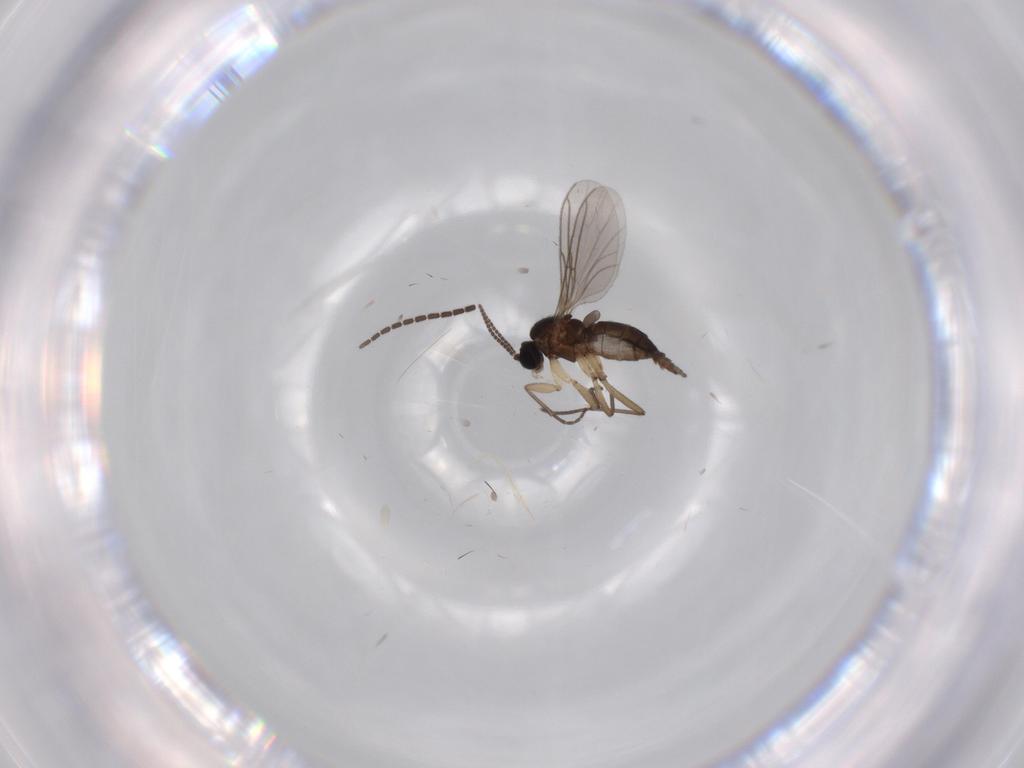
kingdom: Animalia
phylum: Arthropoda
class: Insecta
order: Diptera
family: Sciaridae
